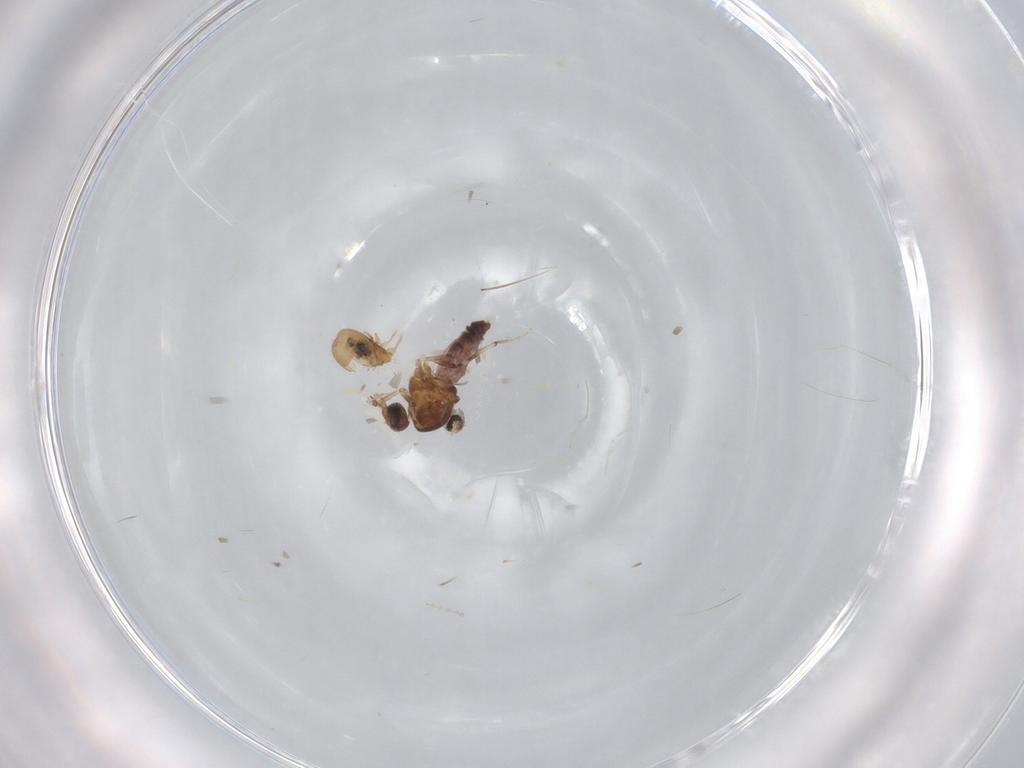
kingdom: Animalia
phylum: Arthropoda
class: Insecta
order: Diptera
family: Ceratopogonidae
